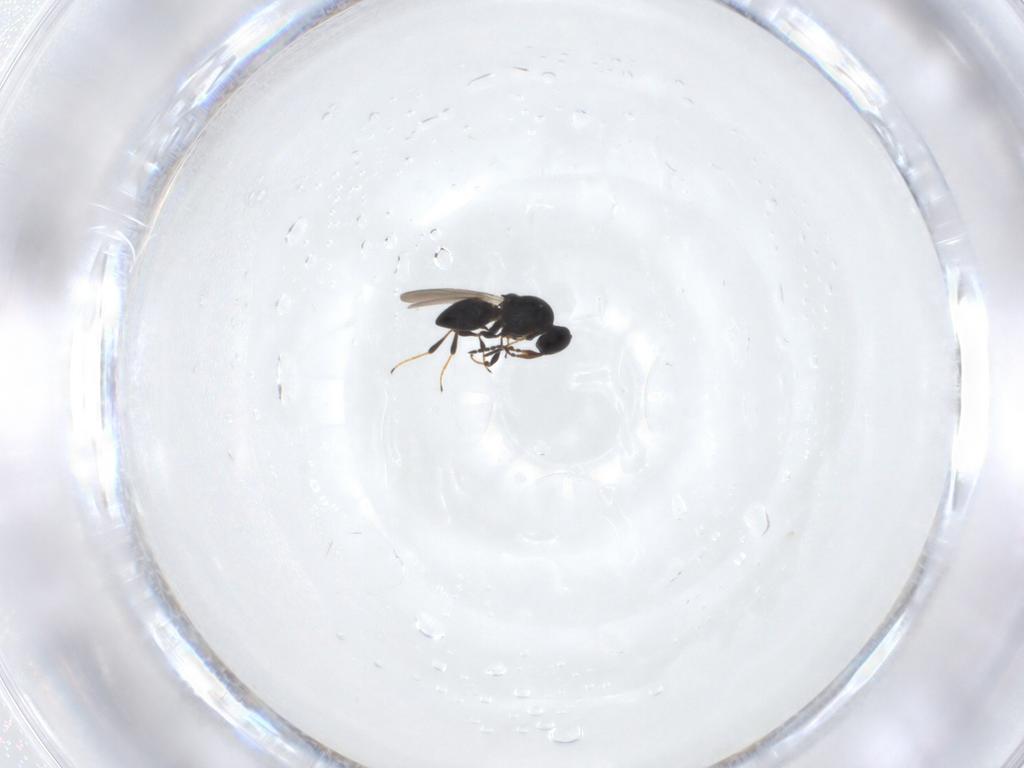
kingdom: Animalia
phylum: Arthropoda
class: Insecta
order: Hymenoptera
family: Platygastridae
